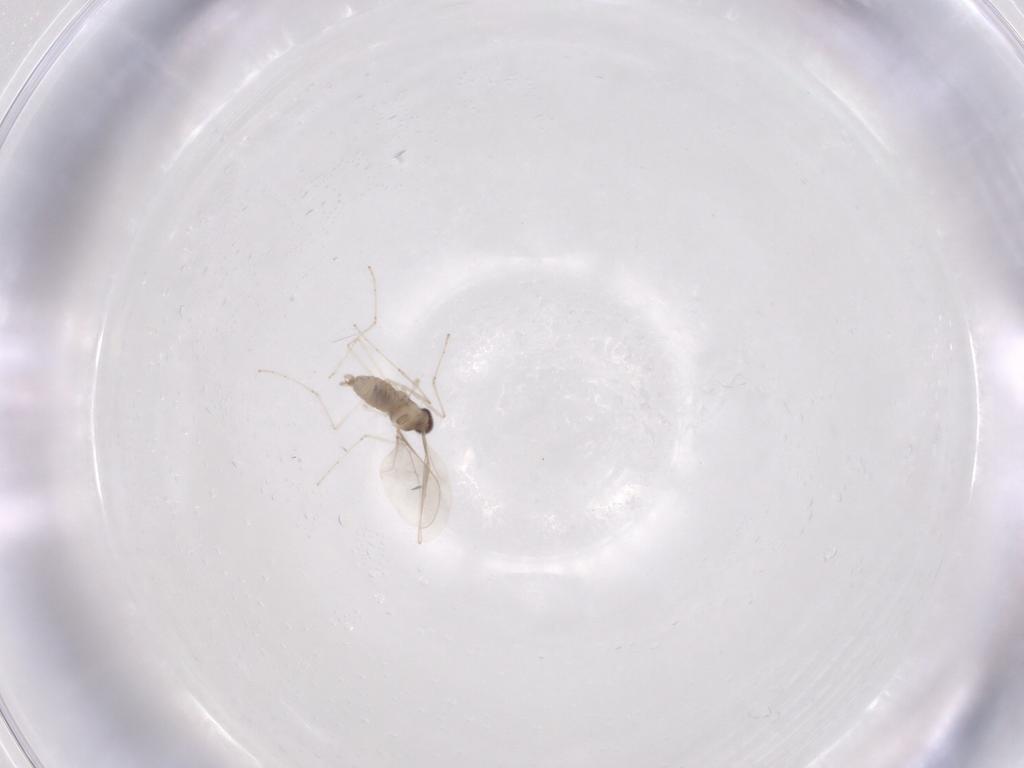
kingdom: Animalia
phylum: Arthropoda
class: Insecta
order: Diptera
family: Cecidomyiidae
